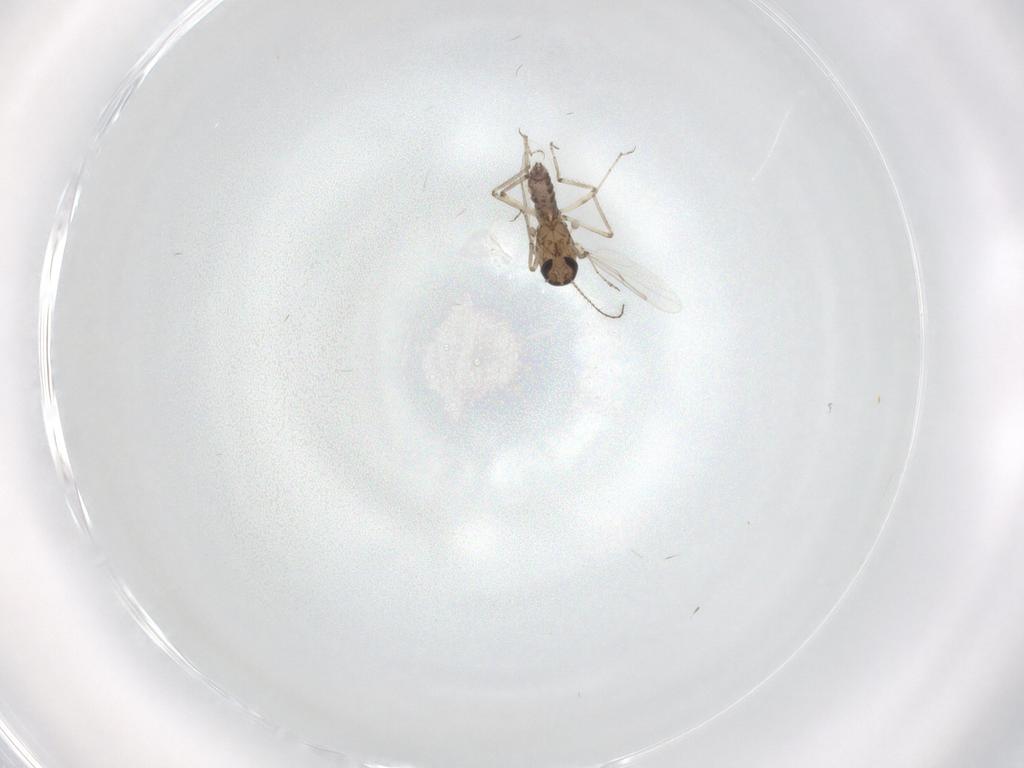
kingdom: Animalia
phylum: Arthropoda
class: Insecta
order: Diptera
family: Ceratopogonidae
